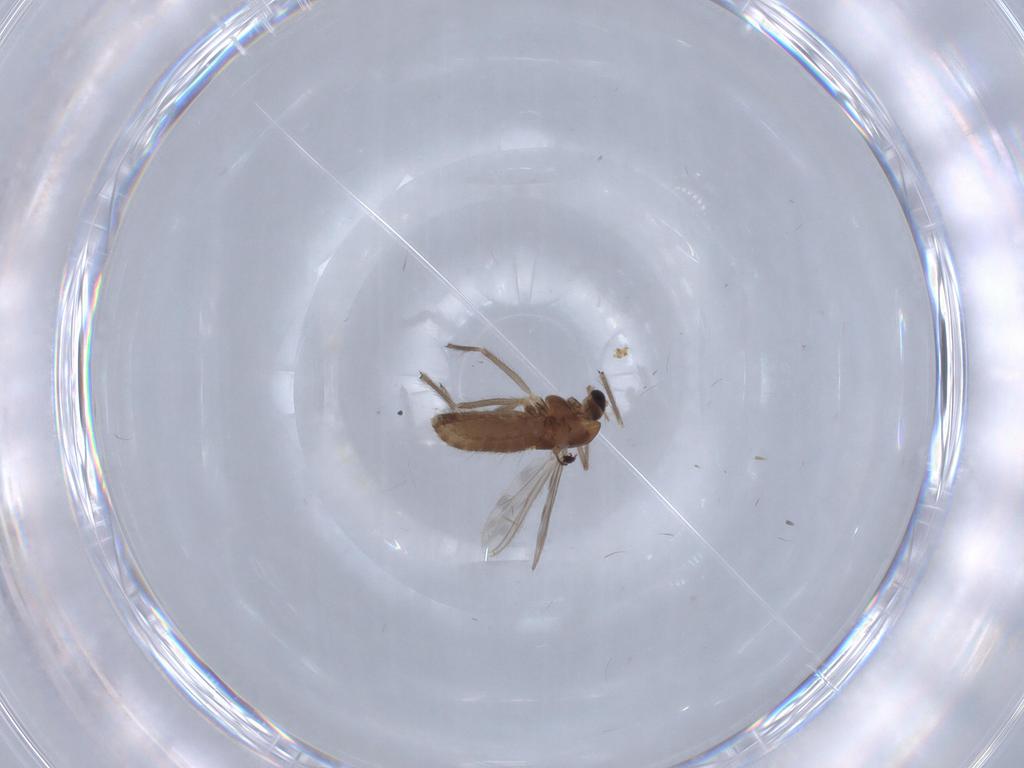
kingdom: Animalia
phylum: Arthropoda
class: Insecta
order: Diptera
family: Chironomidae
